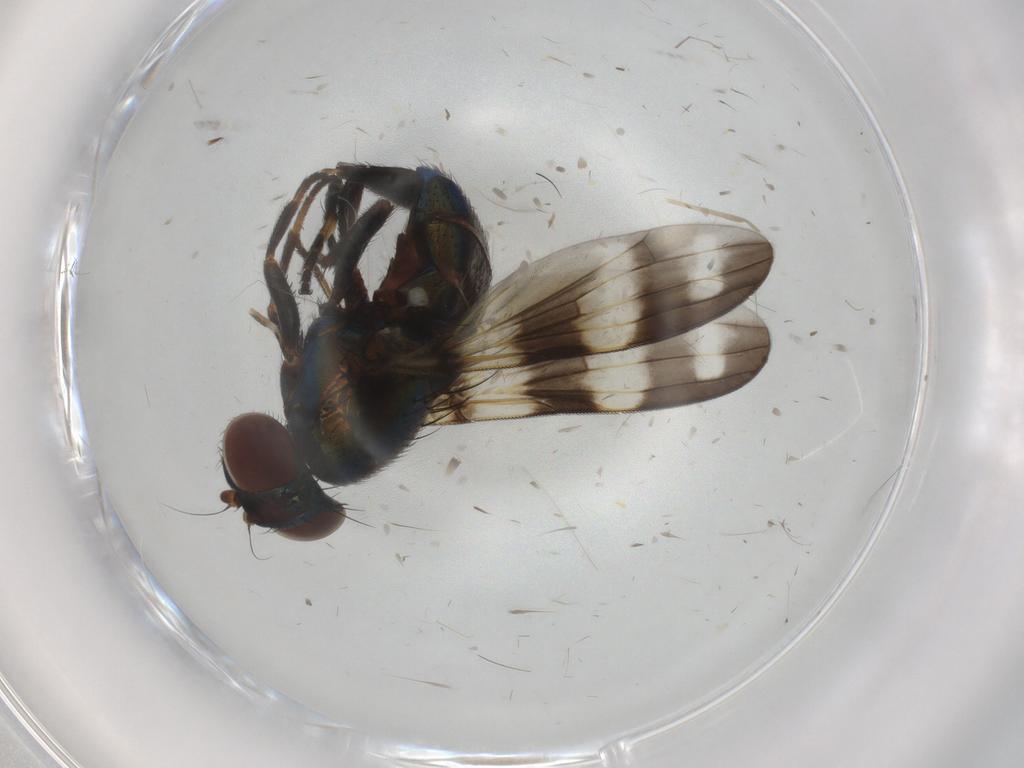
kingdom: Animalia
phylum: Arthropoda
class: Insecta
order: Diptera
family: Ulidiidae
